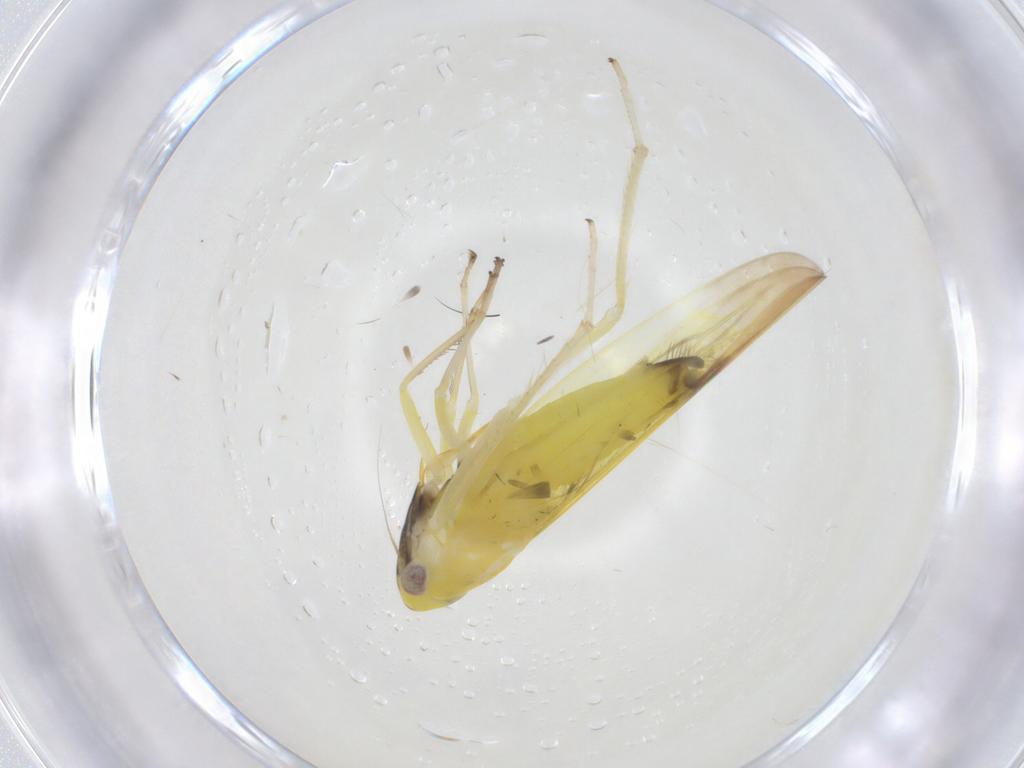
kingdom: Animalia
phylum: Arthropoda
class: Insecta
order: Hemiptera
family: Cicadellidae
